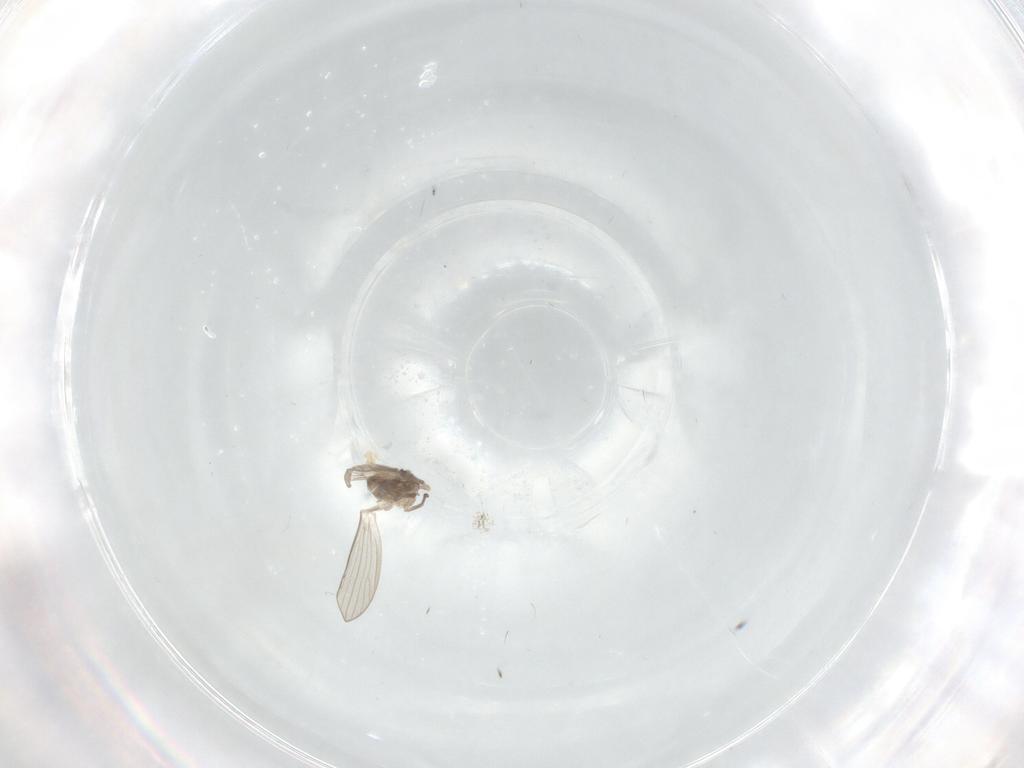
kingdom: Animalia
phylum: Arthropoda
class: Insecta
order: Diptera
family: Psychodidae
